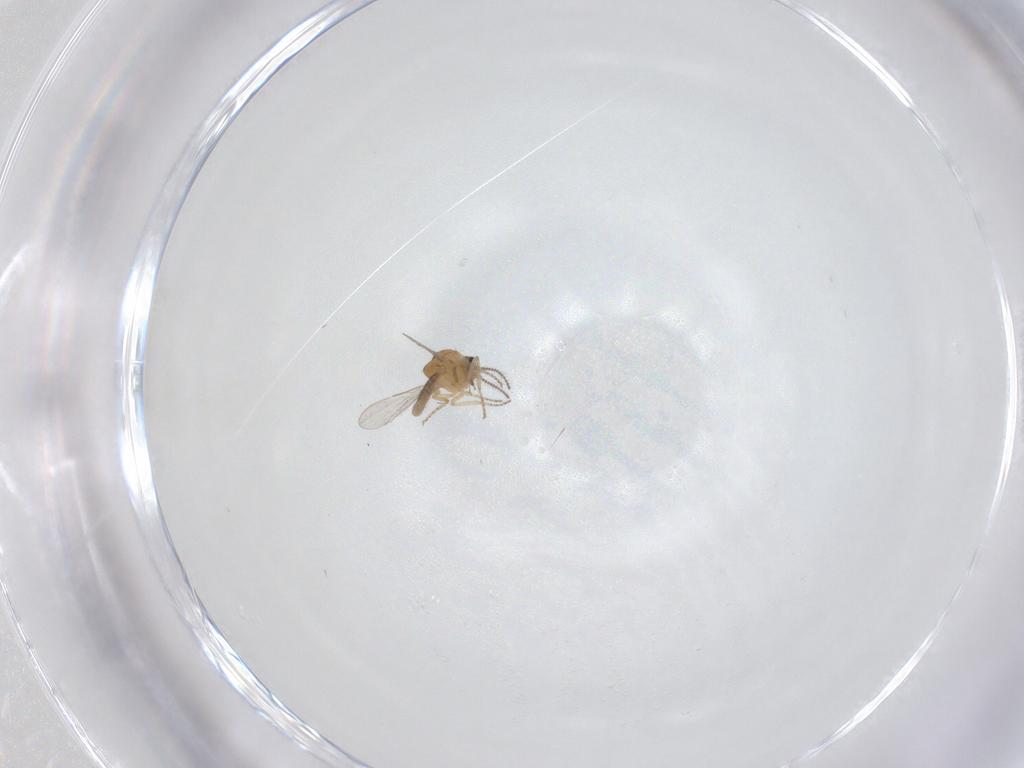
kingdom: Animalia
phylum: Arthropoda
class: Insecta
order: Diptera
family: Ceratopogonidae
